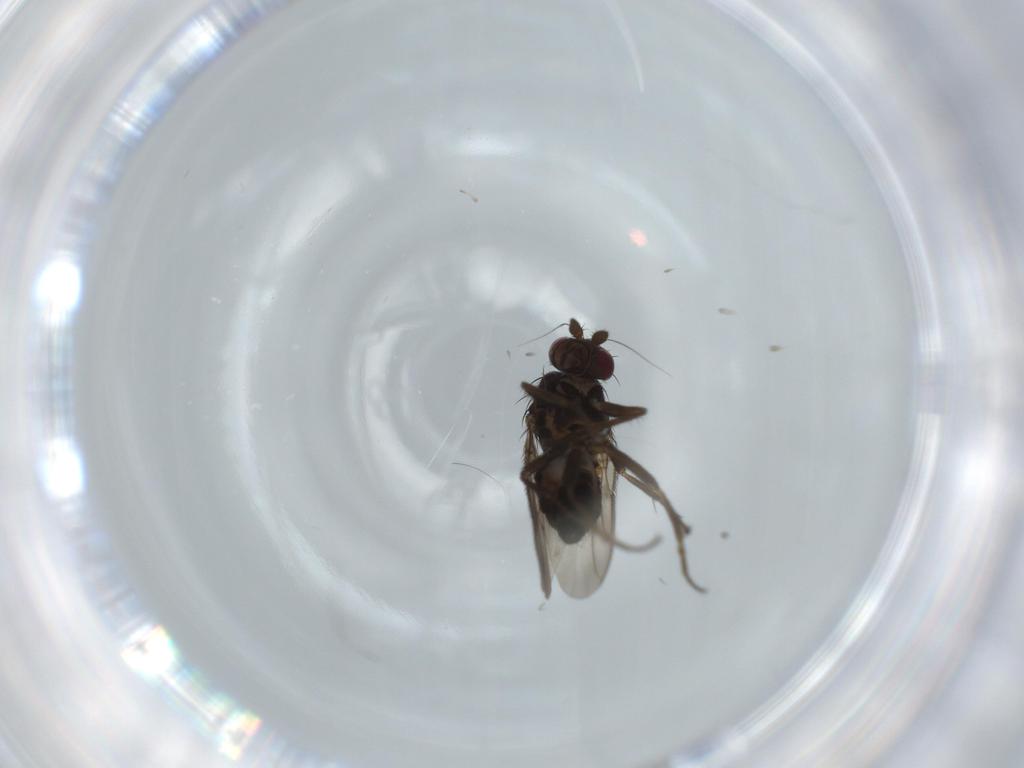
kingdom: Animalia
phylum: Arthropoda
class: Insecta
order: Diptera
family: Sphaeroceridae
